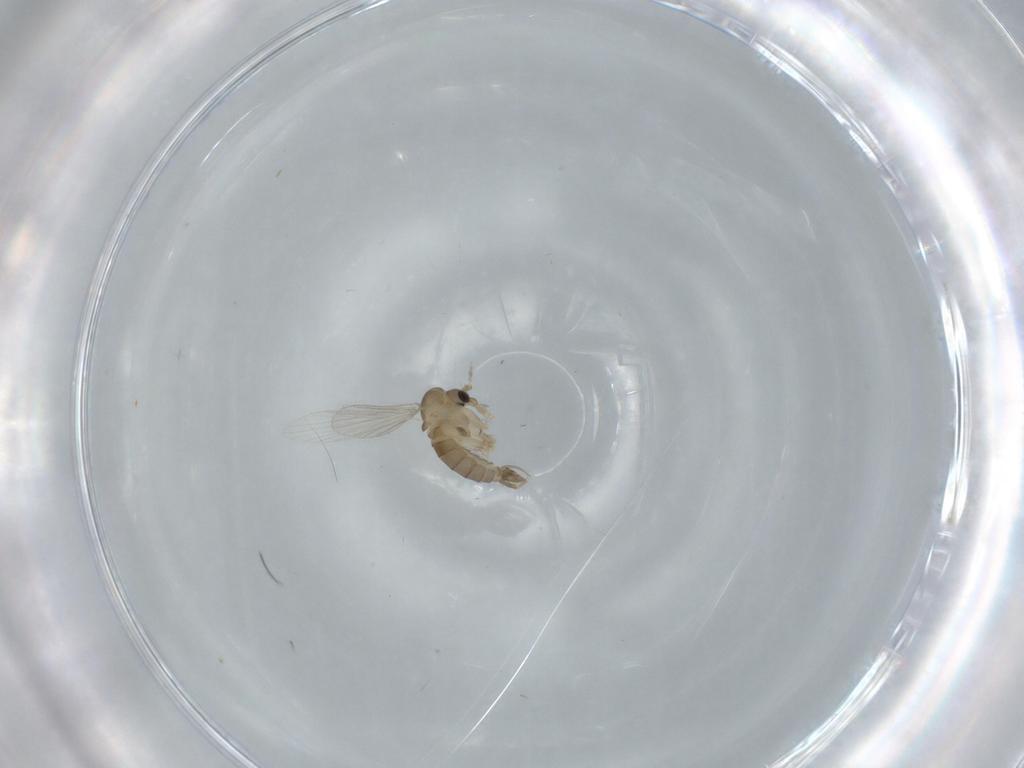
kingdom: Animalia
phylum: Arthropoda
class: Insecta
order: Diptera
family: Psychodidae
